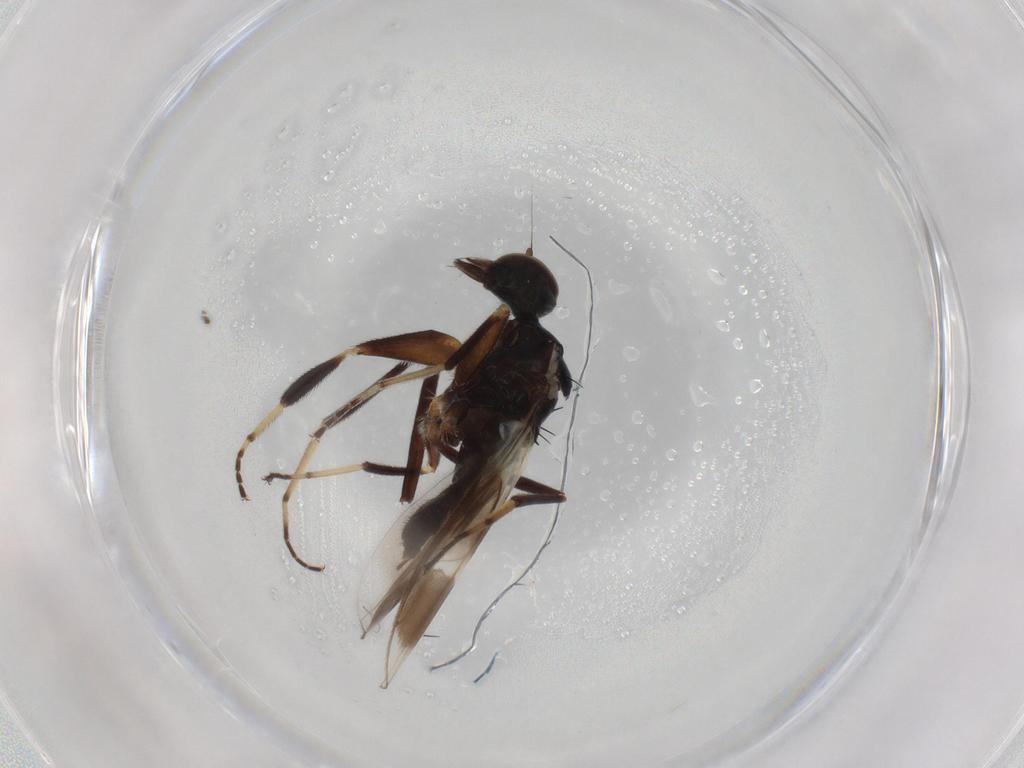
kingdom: Animalia
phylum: Arthropoda
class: Insecta
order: Diptera
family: Hybotidae
